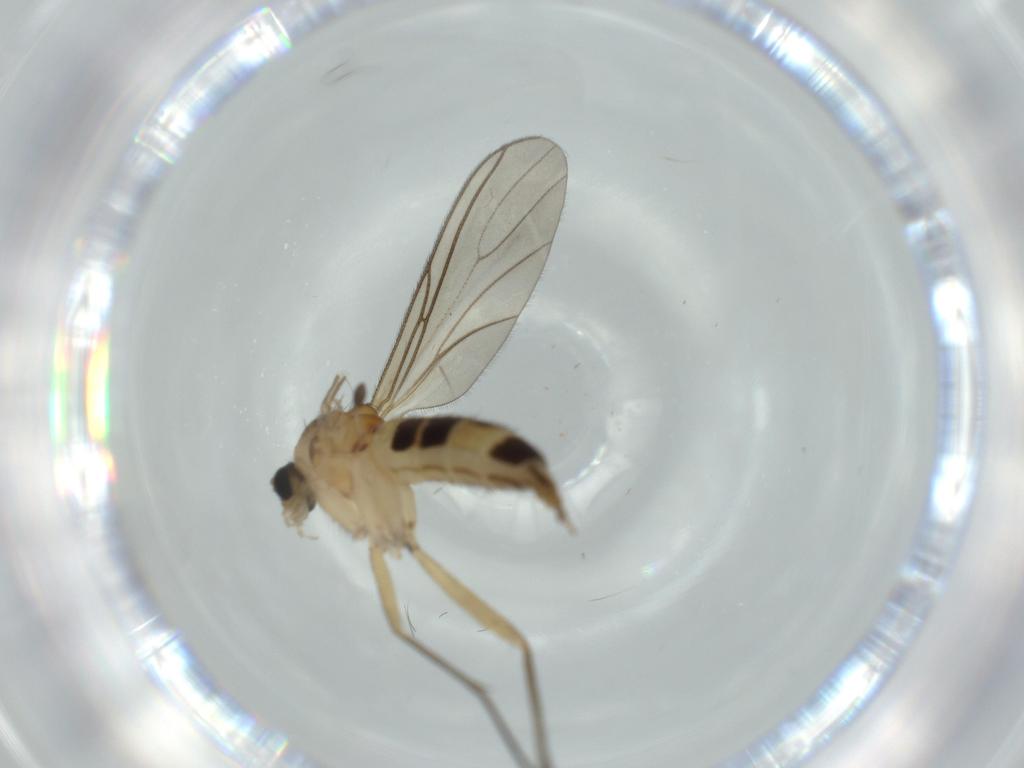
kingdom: Animalia
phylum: Arthropoda
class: Insecta
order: Diptera
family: Sciaridae
